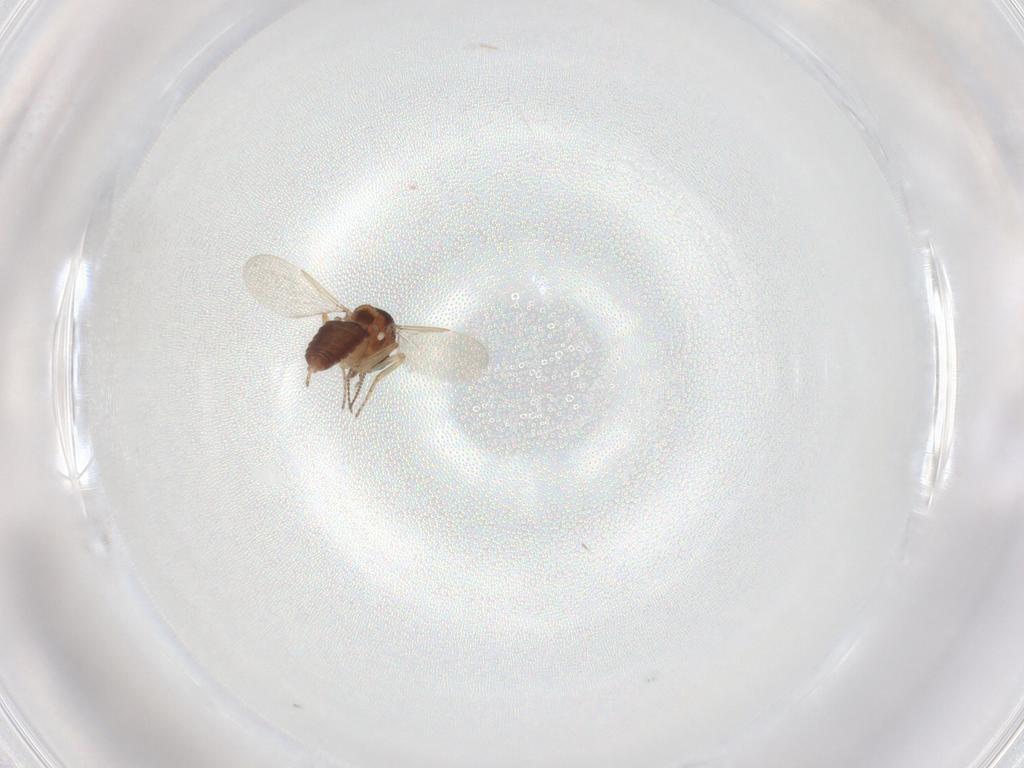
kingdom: Animalia
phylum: Arthropoda
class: Insecta
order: Diptera
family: Ceratopogonidae
